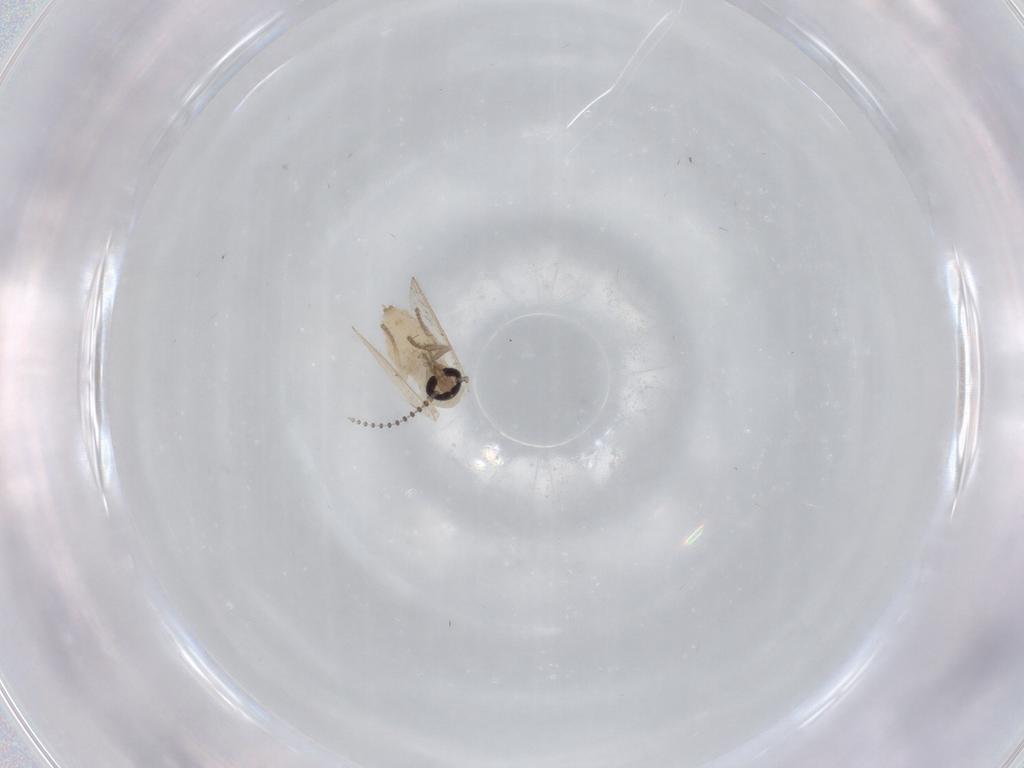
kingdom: Animalia
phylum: Arthropoda
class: Insecta
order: Diptera
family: Psychodidae
